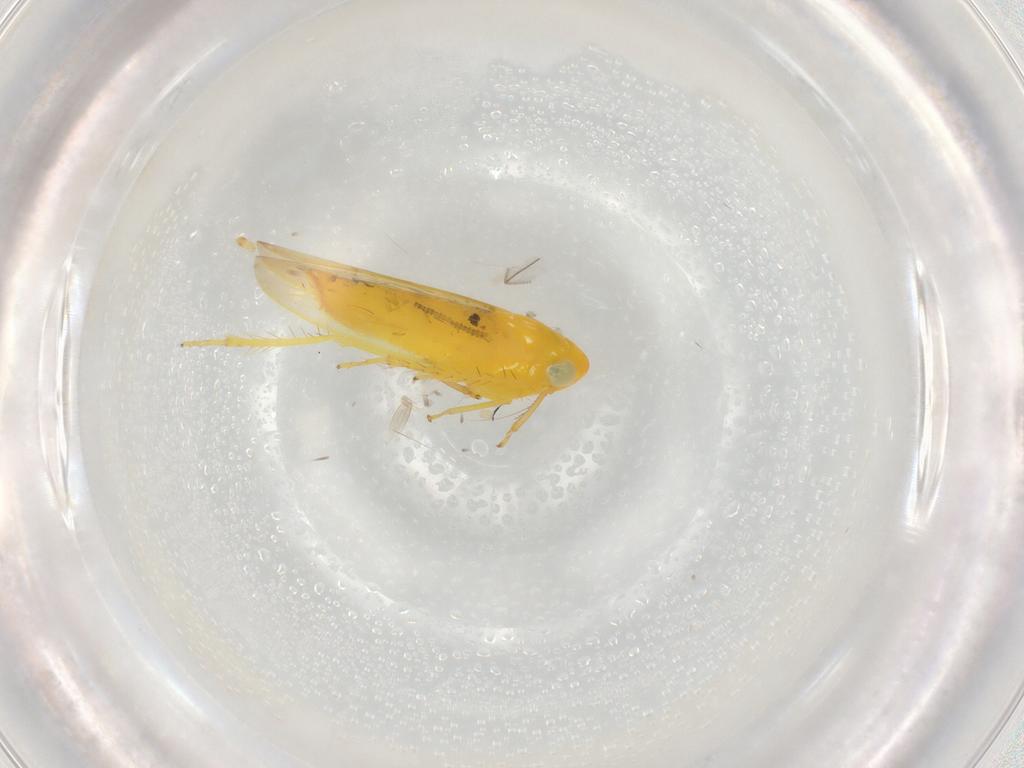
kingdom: Animalia
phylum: Arthropoda
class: Insecta
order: Hemiptera
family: Cicadellidae
